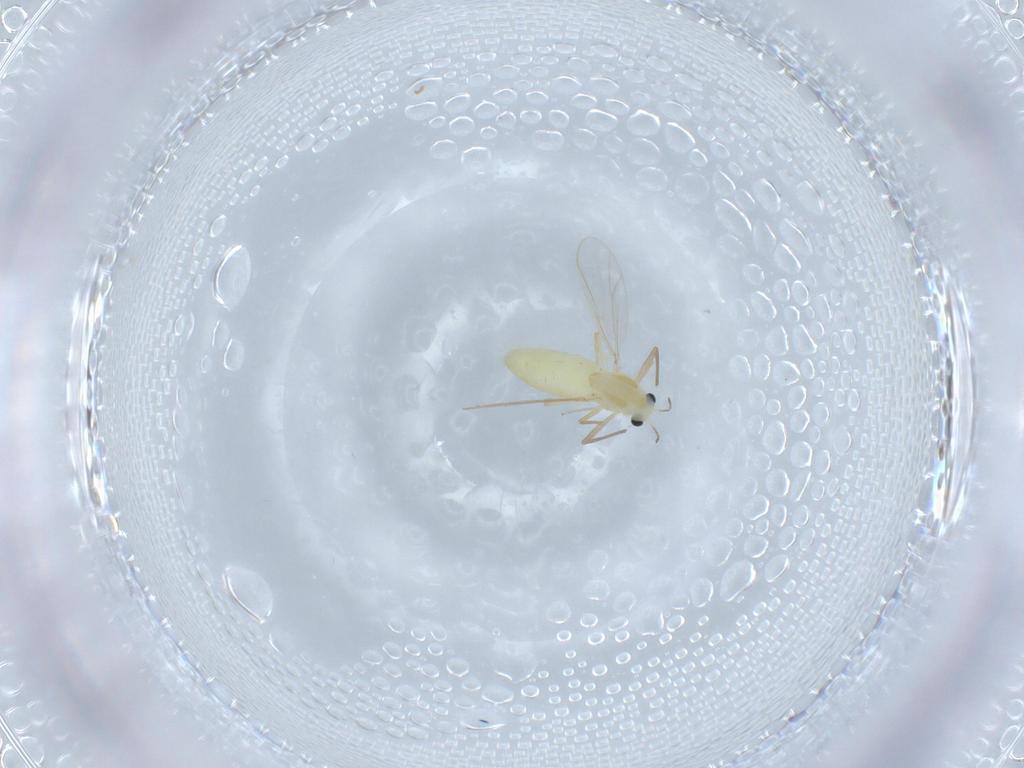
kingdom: Animalia
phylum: Arthropoda
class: Insecta
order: Diptera
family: Chironomidae
